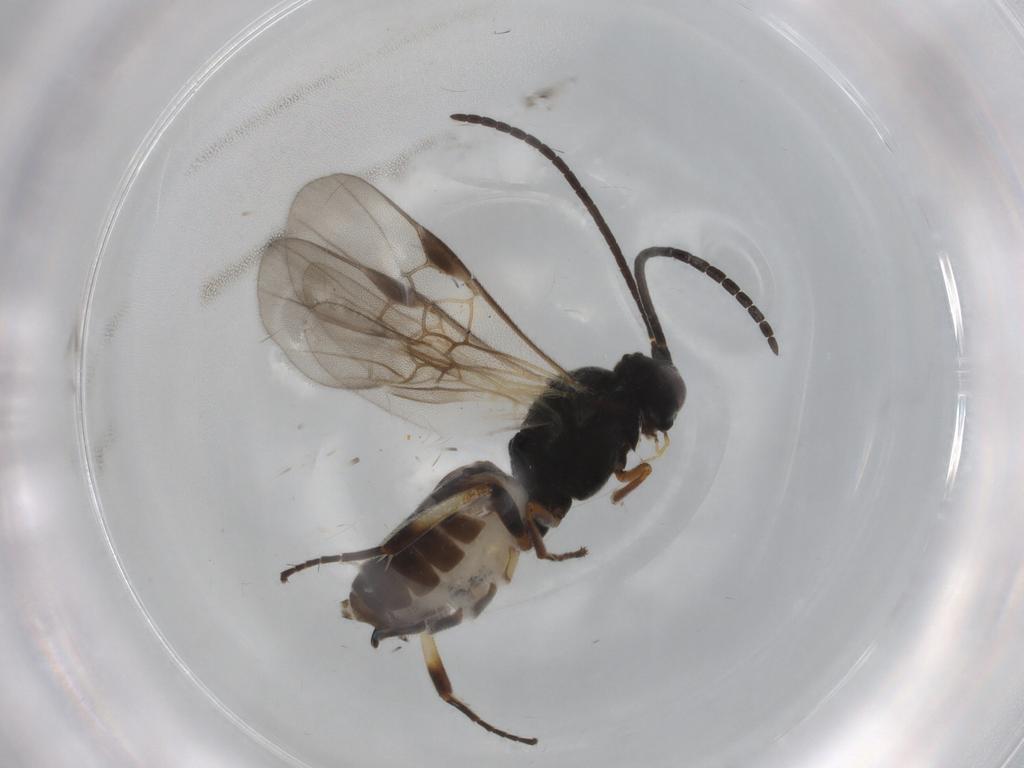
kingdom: Animalia
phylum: Arthropoda
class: Insecta
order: Hymenoptera
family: Braconidae
